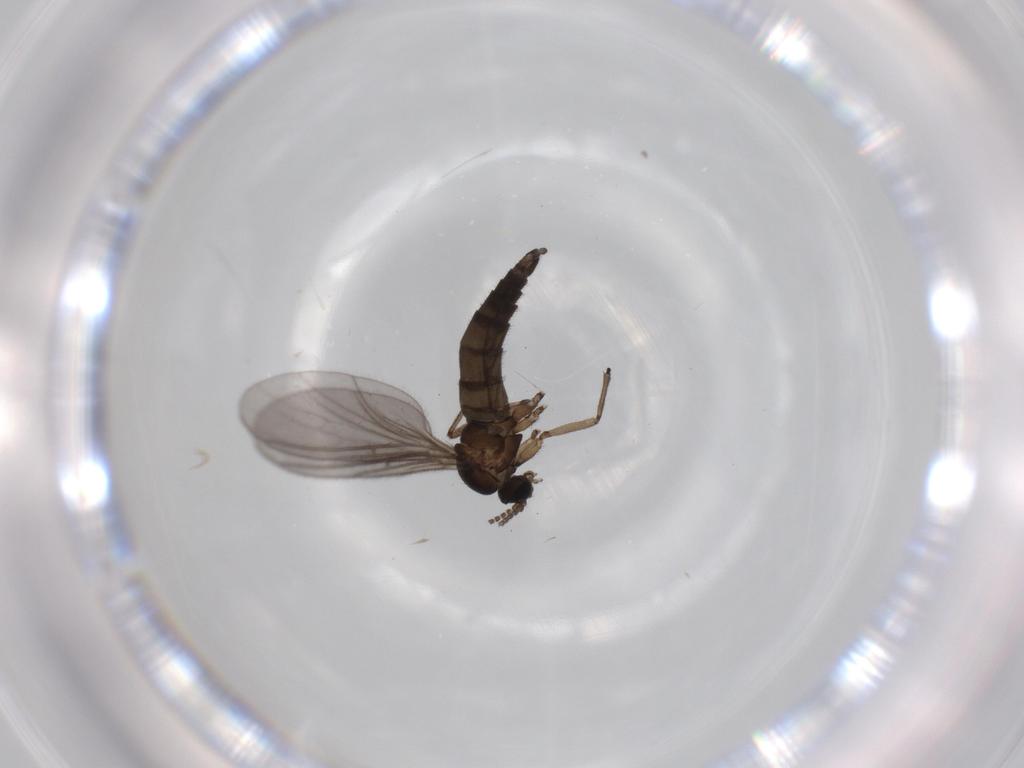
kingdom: Animalia
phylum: Arthropoda
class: Insecta
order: Diptera
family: Sciaridae
